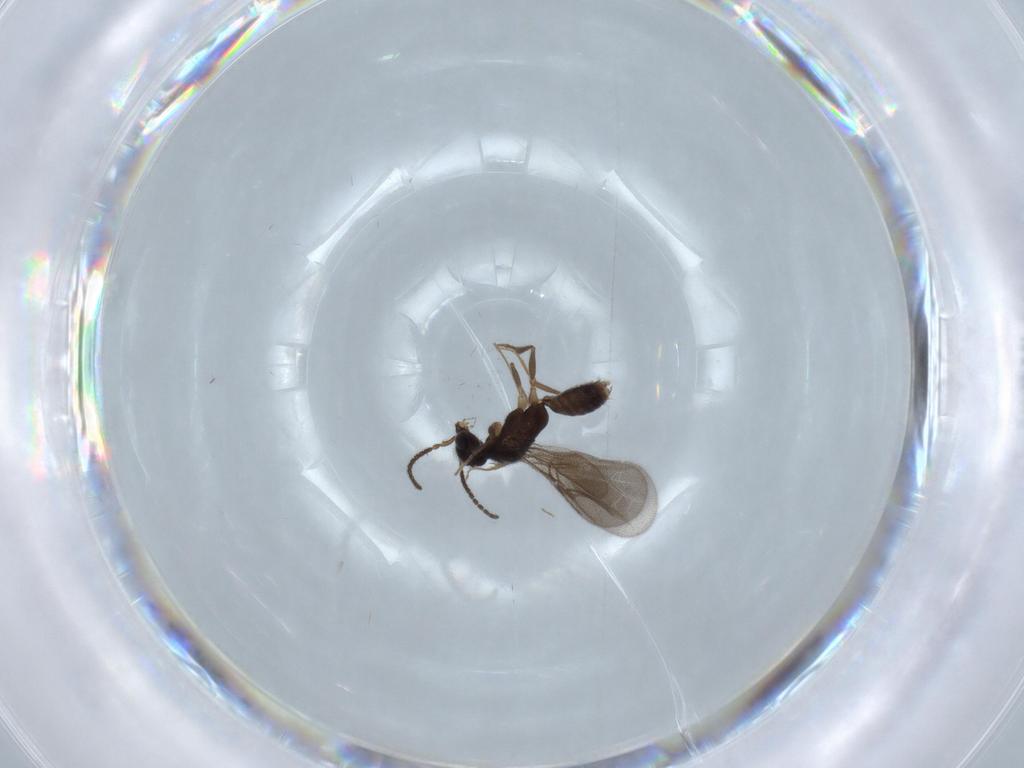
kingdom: Animalia
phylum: Arthropoda
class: Insecta
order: Hymenoptera
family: Bethylidae
